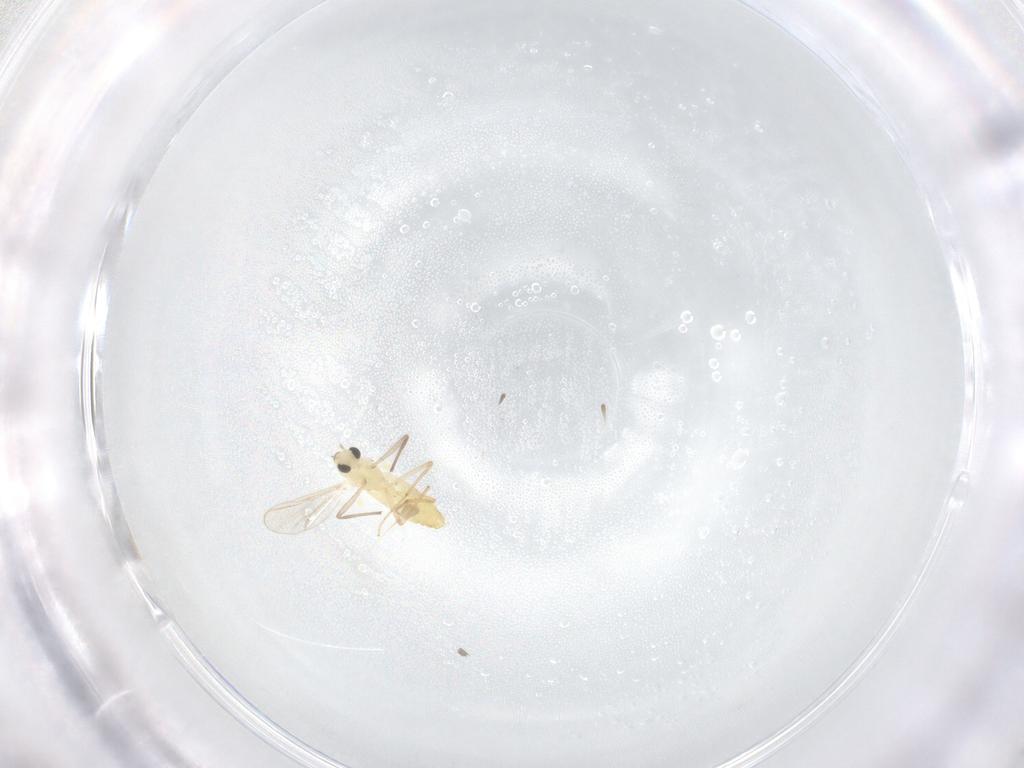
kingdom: Animalia
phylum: Arthropoda
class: Insecta
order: Diptera
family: Chironomidae
